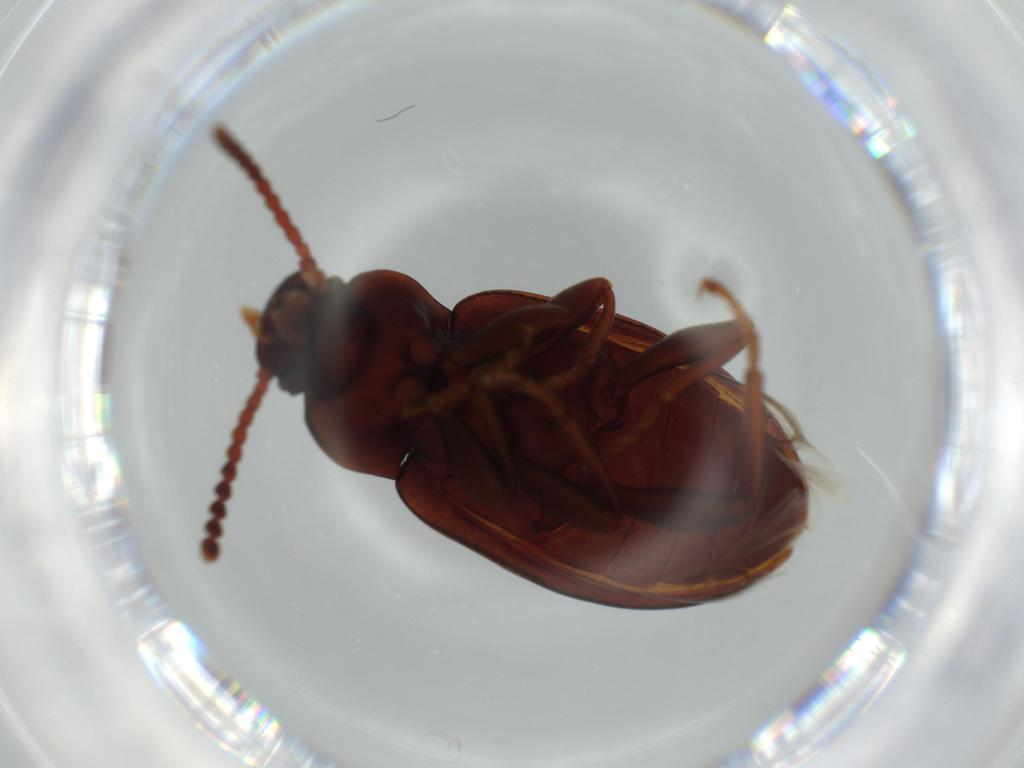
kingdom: Animalia
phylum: Arthropoda
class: Insecta
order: Coleoptera
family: Tenebrionidae
